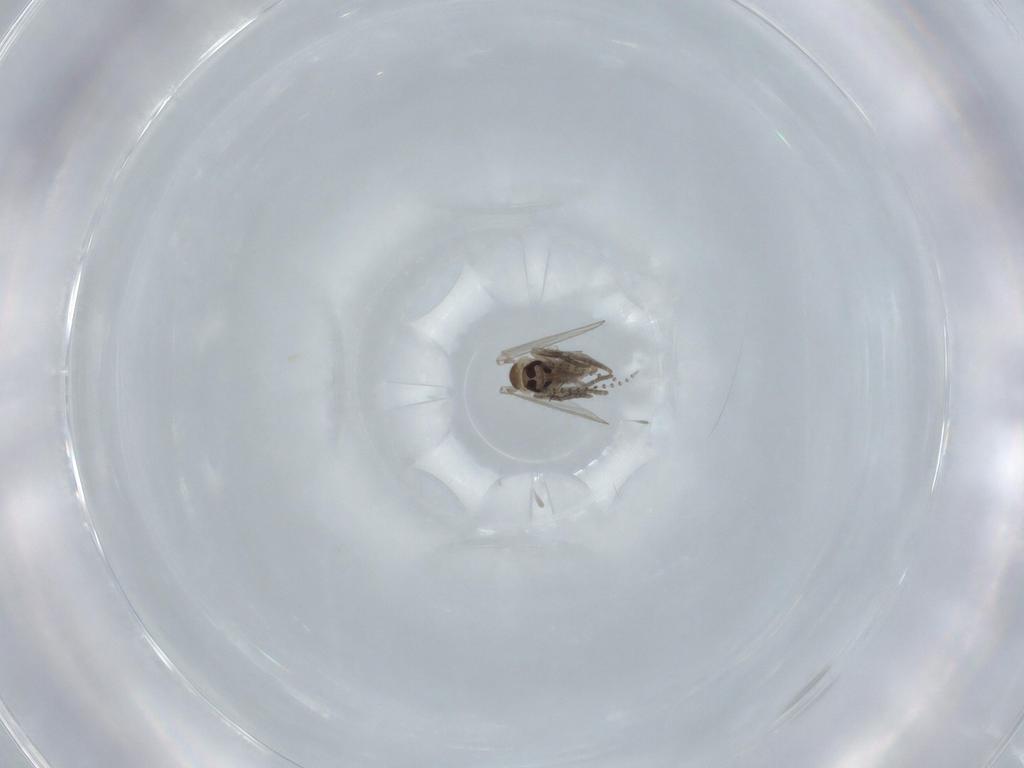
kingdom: Animalia
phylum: Arthropoda
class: Insecta
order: Diptera
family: Psychodidae
